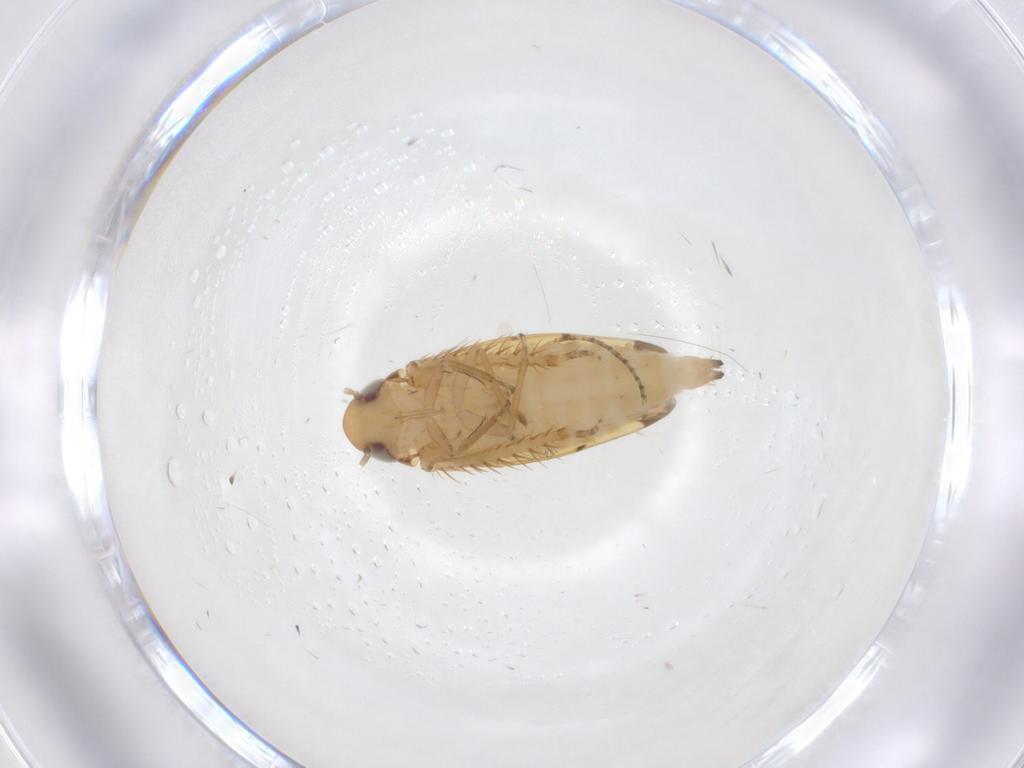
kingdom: Animalia
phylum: Arthropoda
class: Insecta
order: Hemiptera
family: Cicadellidae
